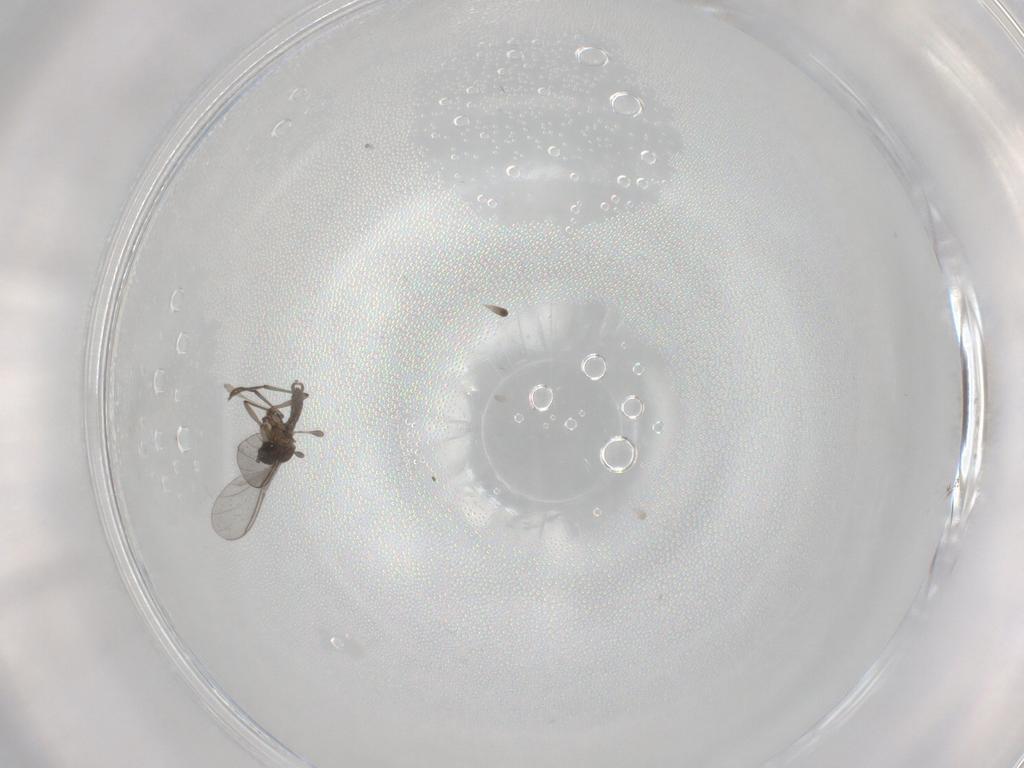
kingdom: Animalia
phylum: Arthropoda
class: Insecta
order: Diptera
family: Sciaridae
